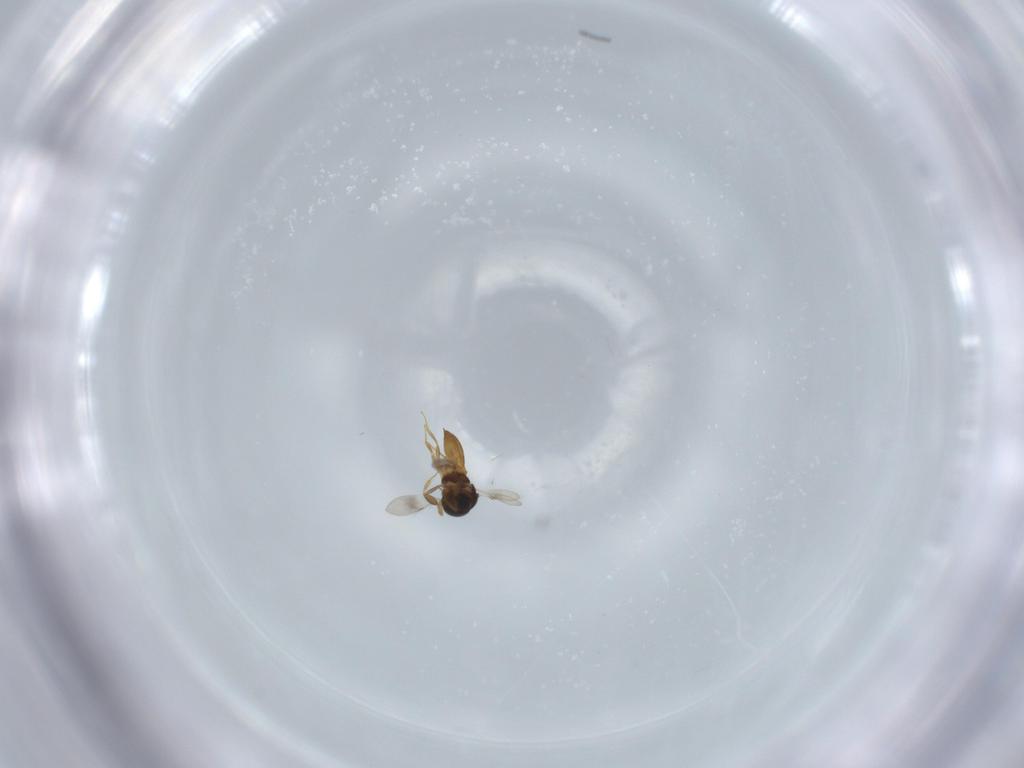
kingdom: Animalia
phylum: Arthropoda
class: Insecta
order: Hymenoptera
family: Scelionidae
